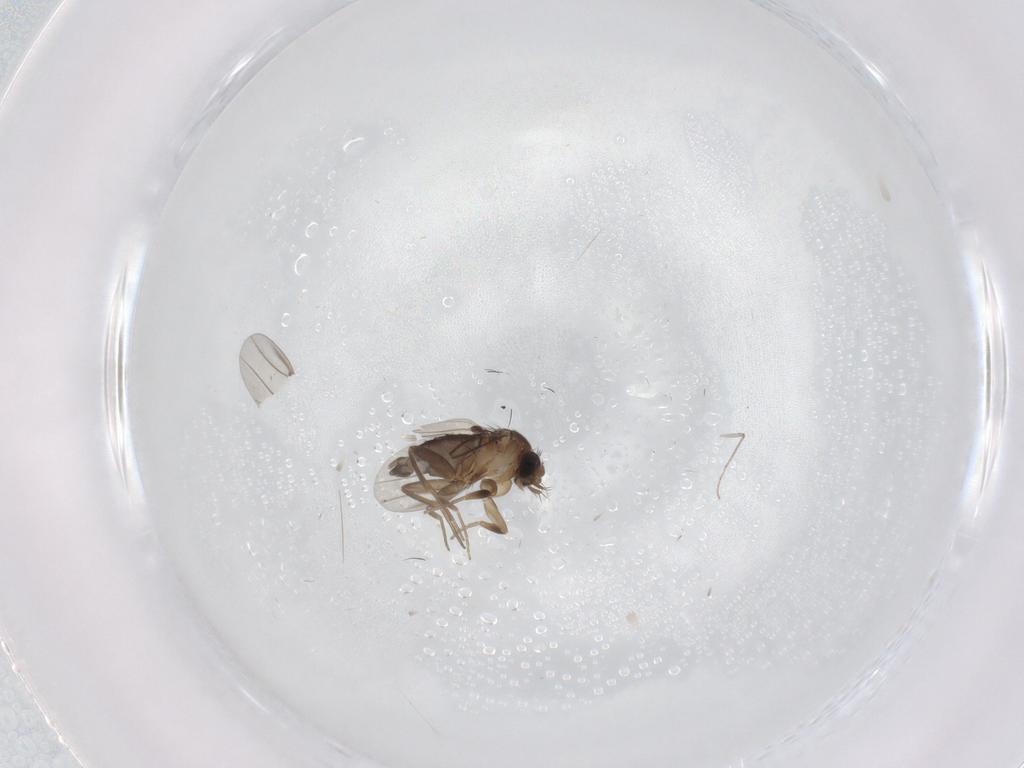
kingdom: Animalia
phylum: Arthropoda
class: Insecta
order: Diptera
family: Phoridae
